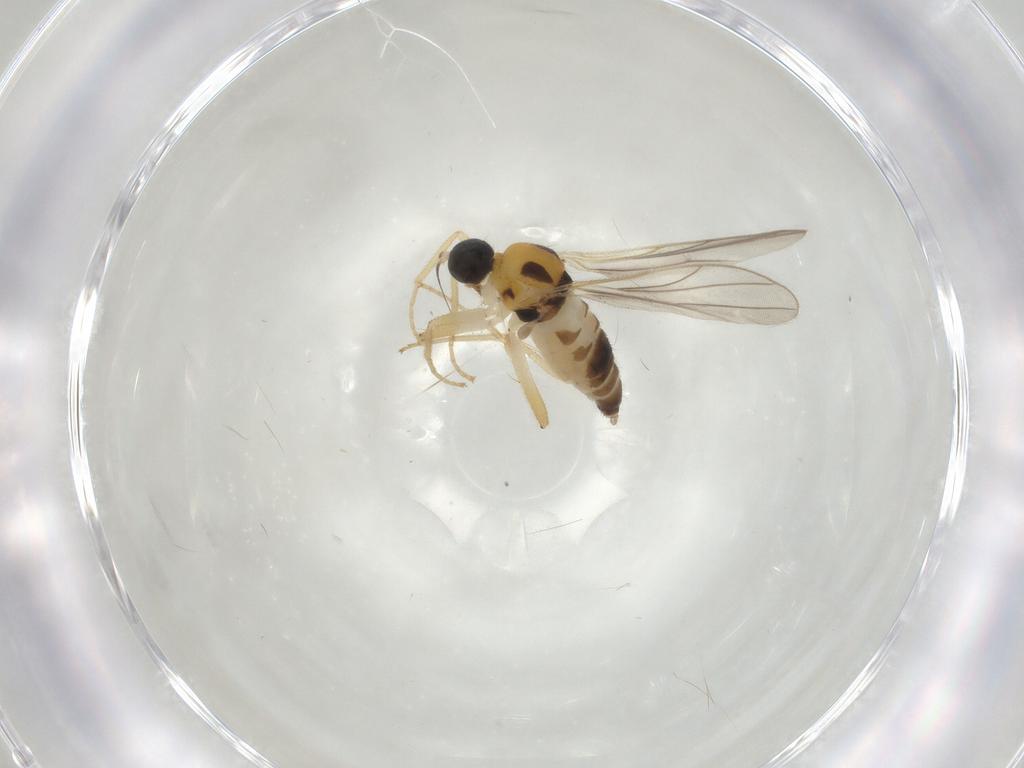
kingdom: Animalia
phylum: Arthropoda
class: Insecta
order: Diptera
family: Hybotidae
